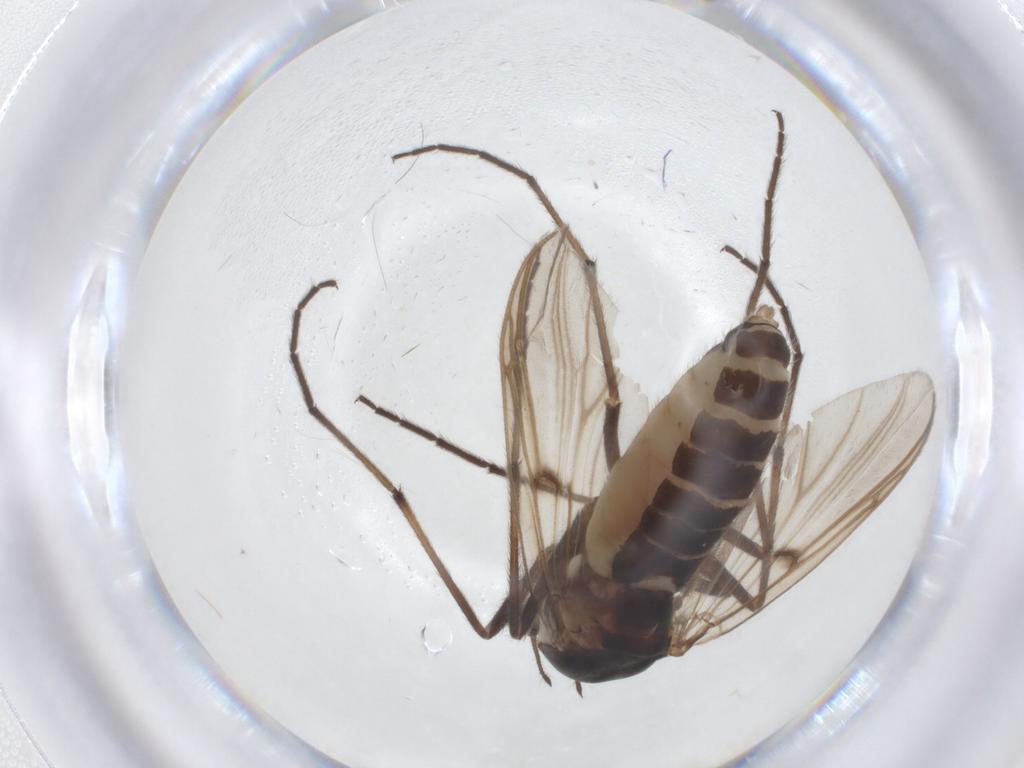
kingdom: Animalia
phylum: Arthropoda
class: Insecta
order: Diptera
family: Chironomidae
